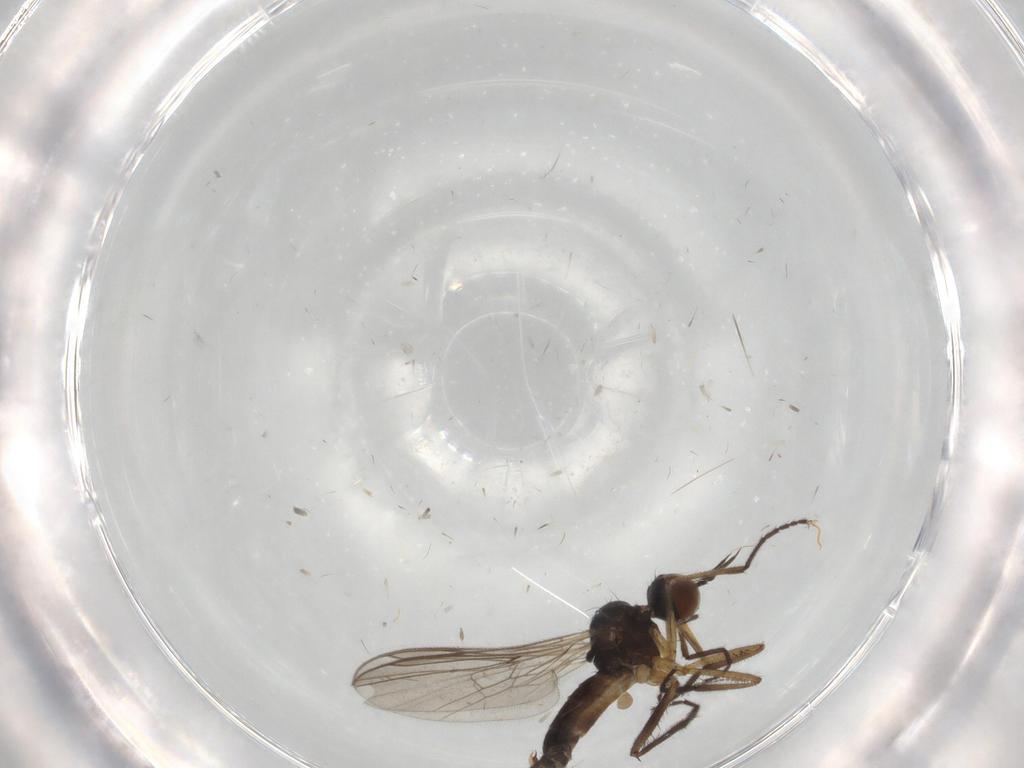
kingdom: Animalia
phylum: Arthropoda
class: Insecta
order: Diptera
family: Empididae
